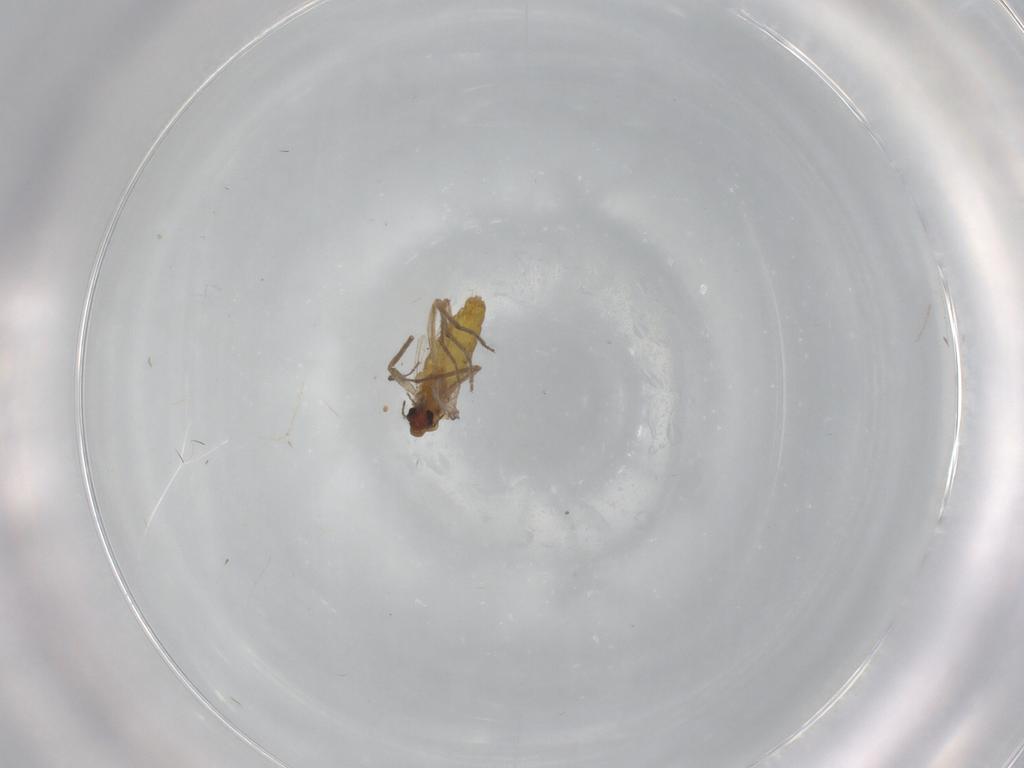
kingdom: Animalia
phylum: Arthropoda
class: Insecta
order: Diptera
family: Chironomidae
